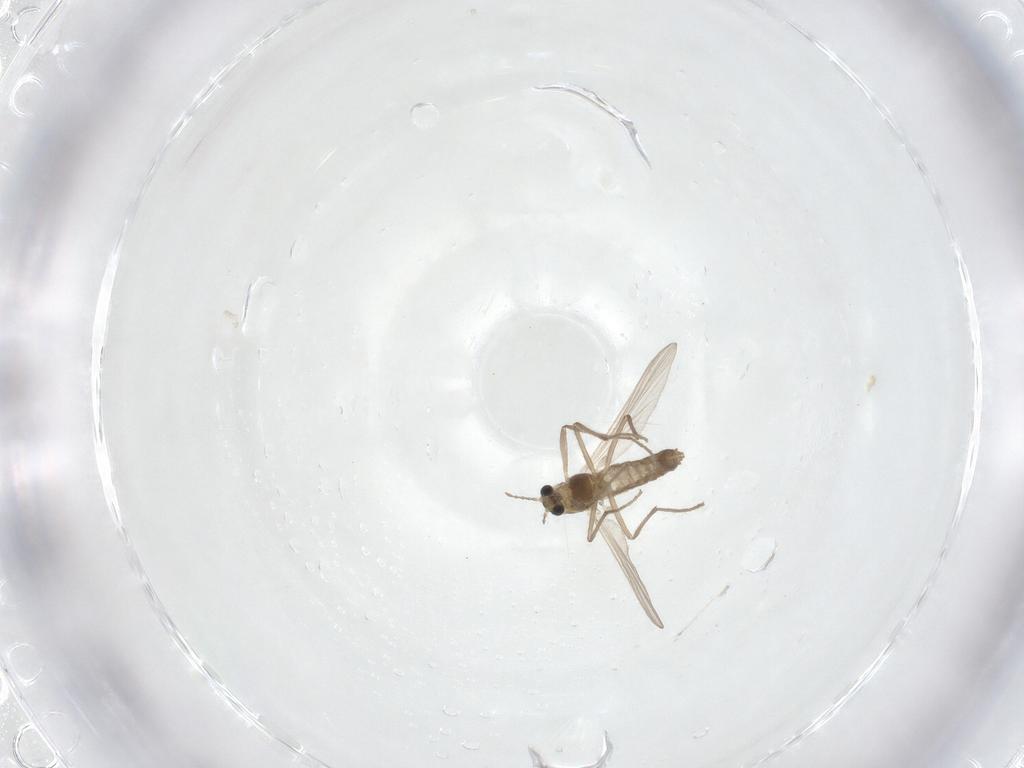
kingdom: Animalia
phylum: Arthropoda
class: Insecta
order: Diptera
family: Chironomidae
